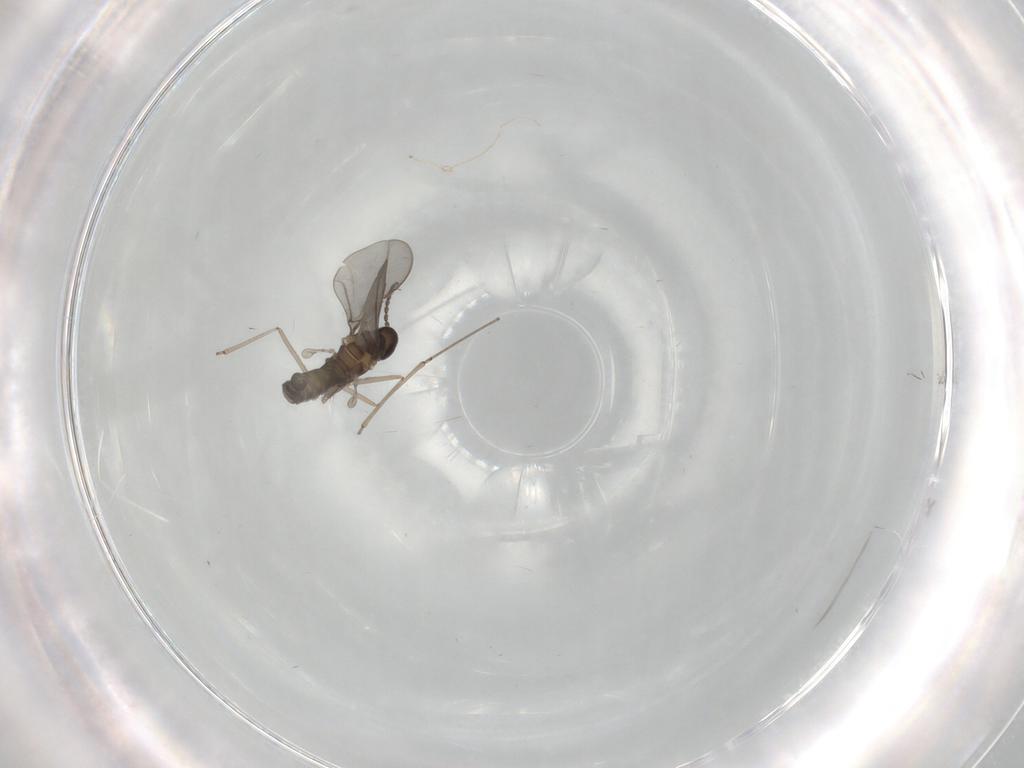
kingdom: Animalia
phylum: Arthropoda
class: Insecta
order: Diptera
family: Cecidomyiidae
